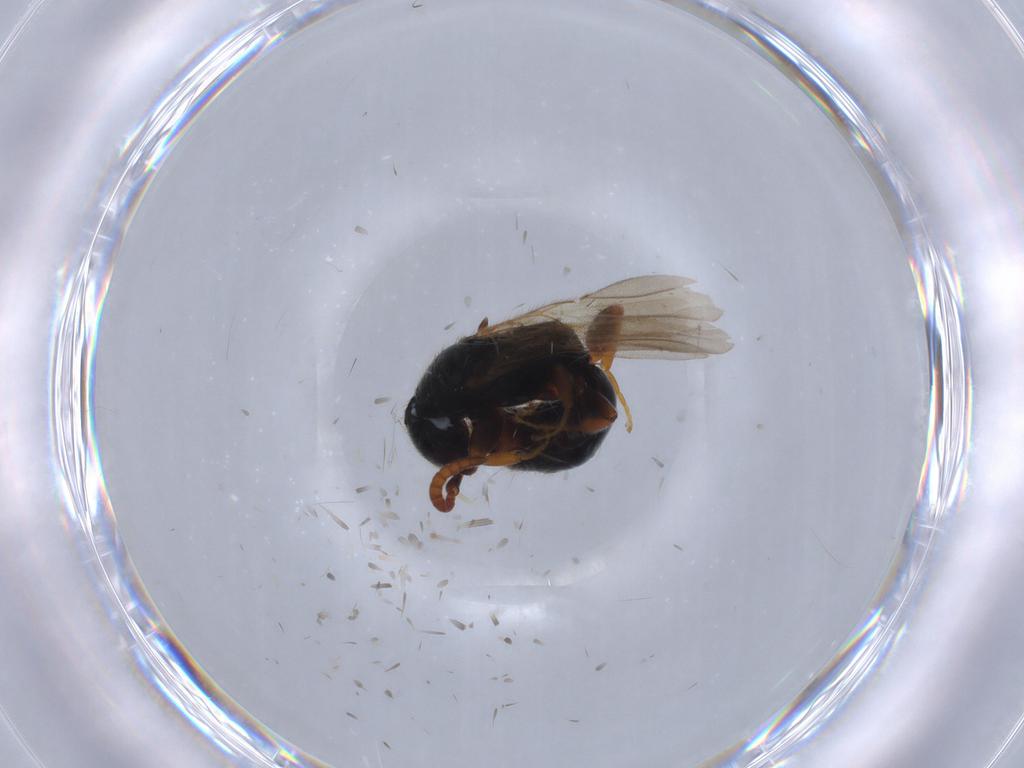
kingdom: Animalia
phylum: Arthropoda
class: Insecta
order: Hymenoptera
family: Bethylidae
